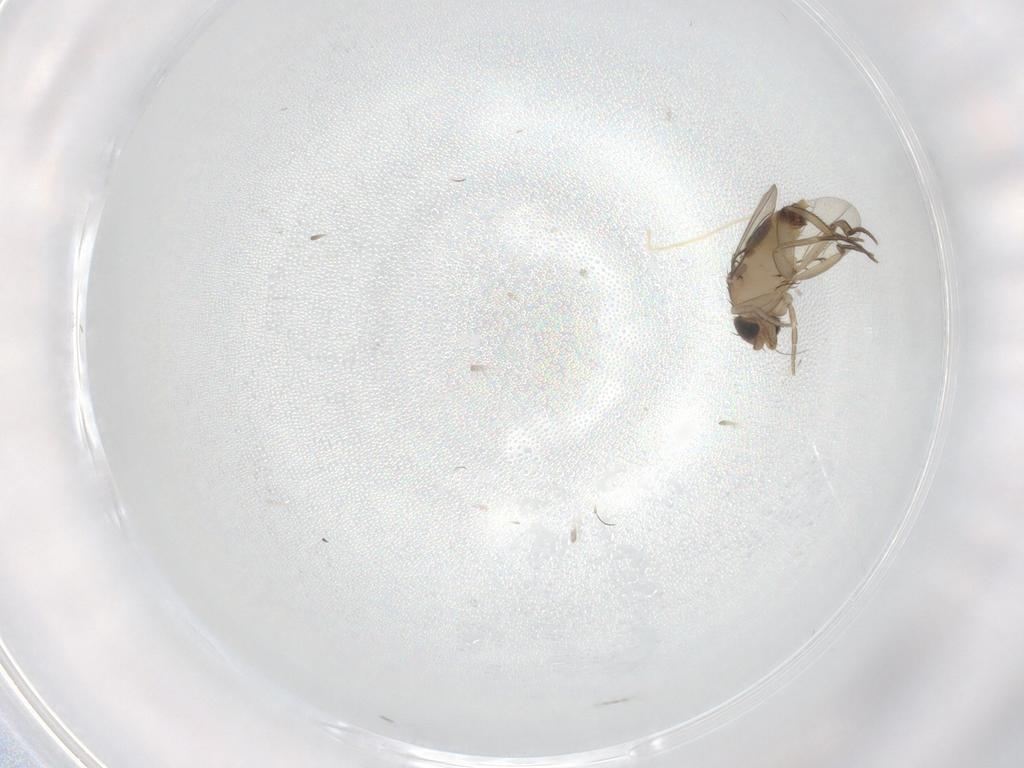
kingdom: Animalia
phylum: Arthropoda
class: Insecta
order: Diptera
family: Phoridae
